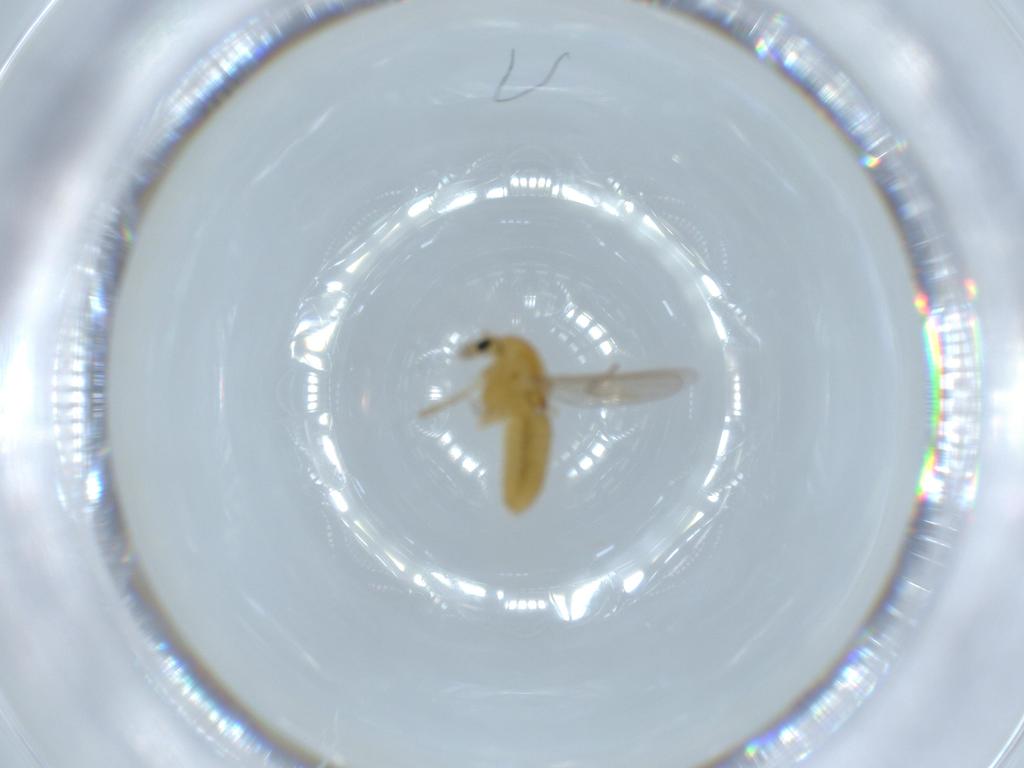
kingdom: Animalia
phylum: Arthropoda
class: Insecta
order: Diptera
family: Chironomidae
